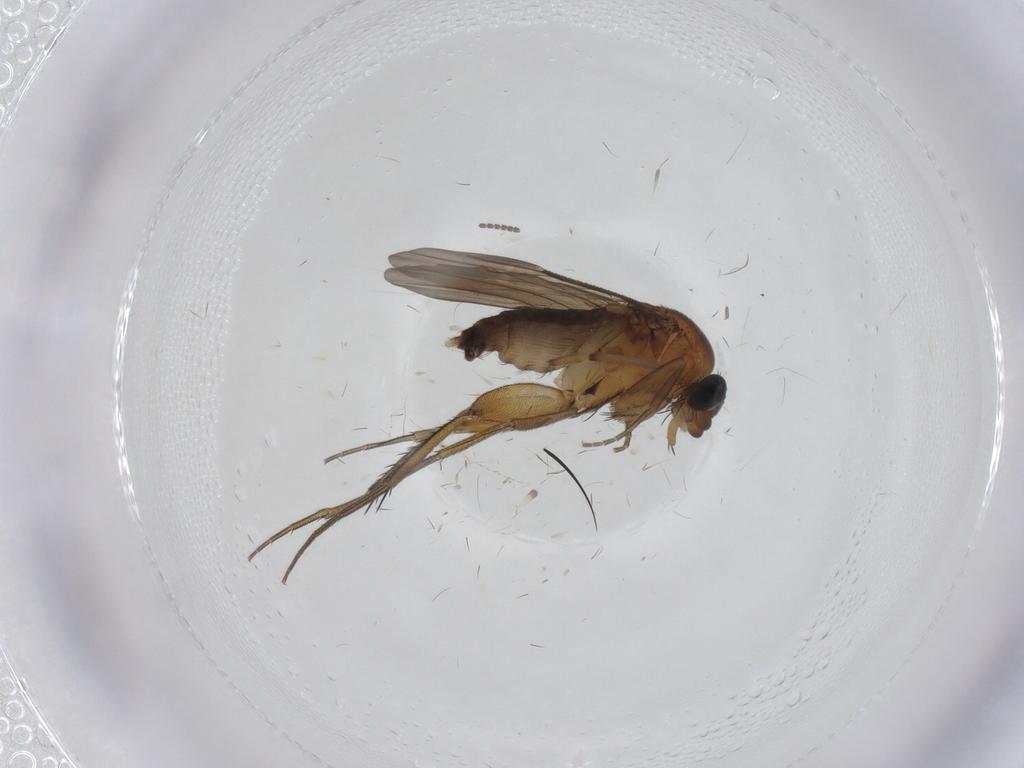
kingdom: Animalia
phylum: Arthropoda
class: Insecta
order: Diptera
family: Phoridae
